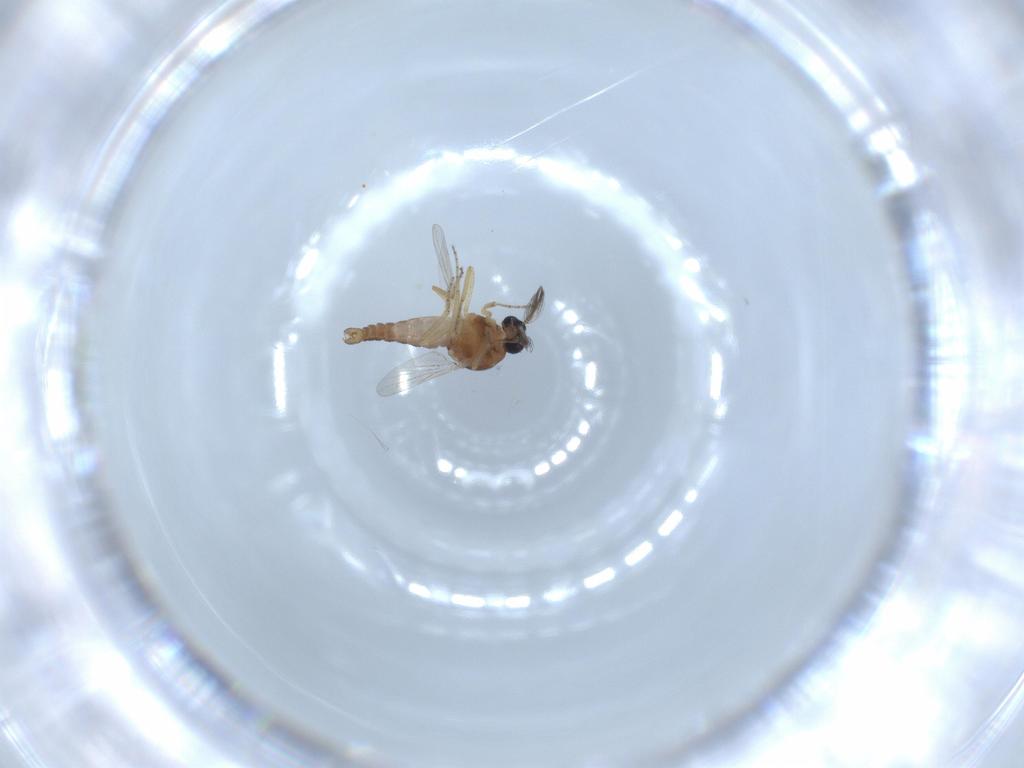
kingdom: Animalia
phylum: Arthropoda
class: Insecta
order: Diptera
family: Ceratopogonidae
